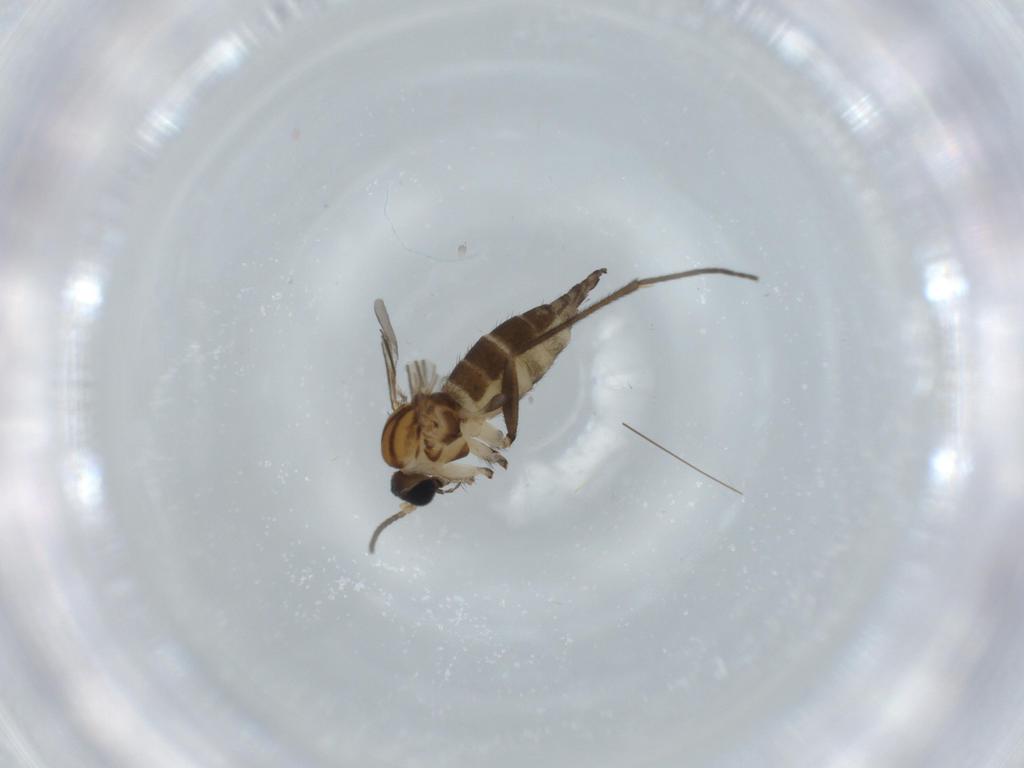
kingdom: Animalia
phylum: Arthropoda
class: Insecta
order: Diptera
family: Sciaridae
